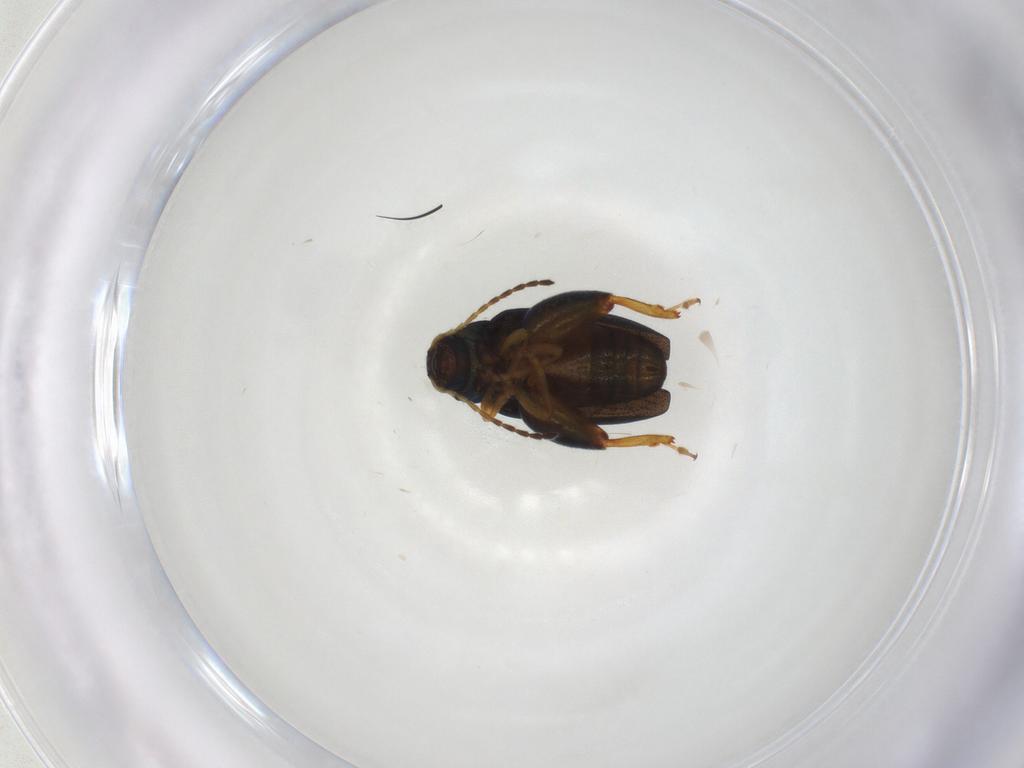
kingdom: Animalia
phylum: Arthropoda
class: Insecta
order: Coleoptera
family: Chrysomelidae
